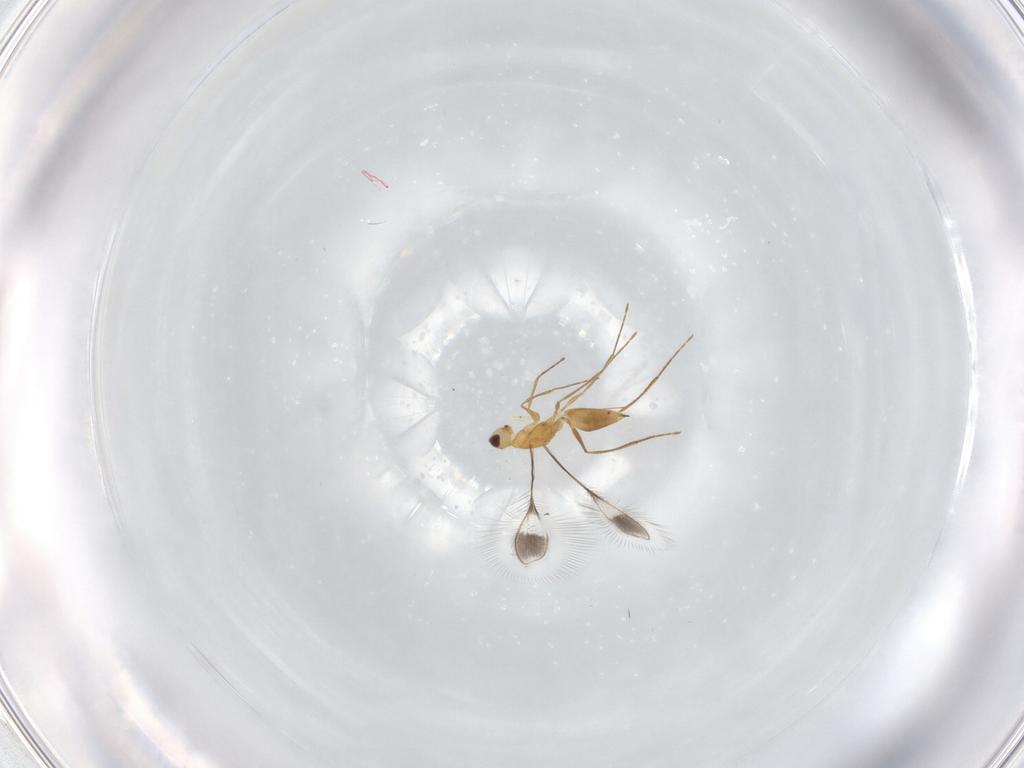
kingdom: Animalia
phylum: Arthropoda
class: Insecta
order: Hymenoptera
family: Mymaridae
